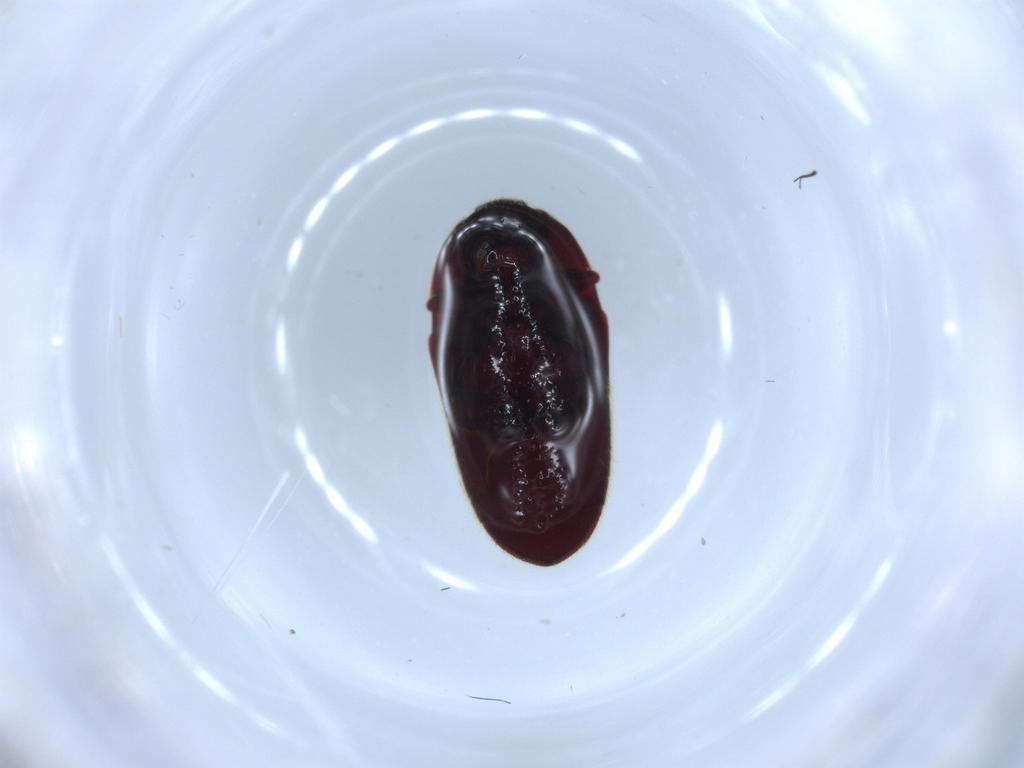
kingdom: Animalia
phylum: Arthropoda
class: Insecta
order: Coleoptera
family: Throscidae
